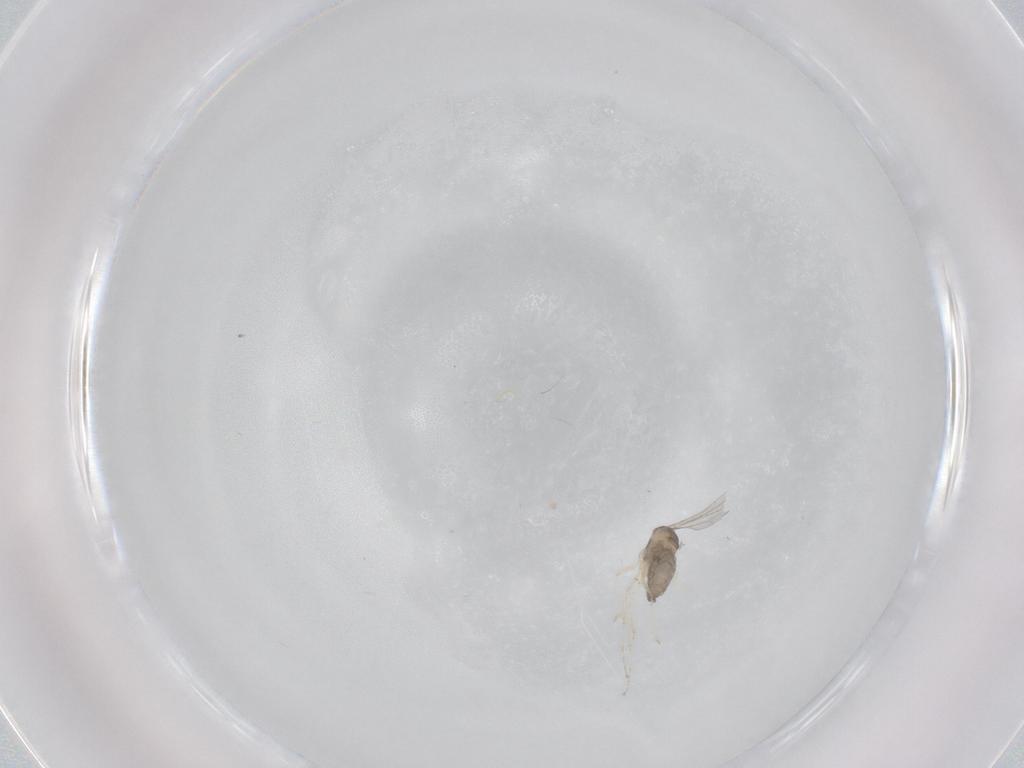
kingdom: Animalia
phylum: Arthropoda
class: Insecta
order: Diptera
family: Cecidomyiidae
